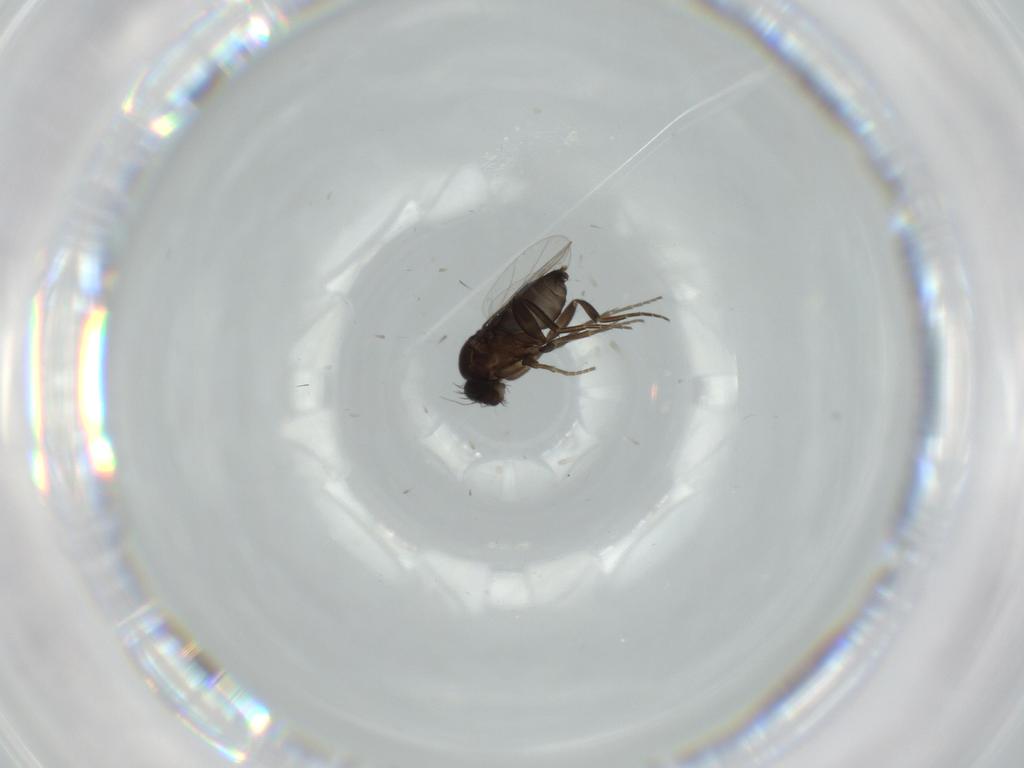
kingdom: Animalia
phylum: Arthropoda
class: Insecta
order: Diptera
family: Phoridae
